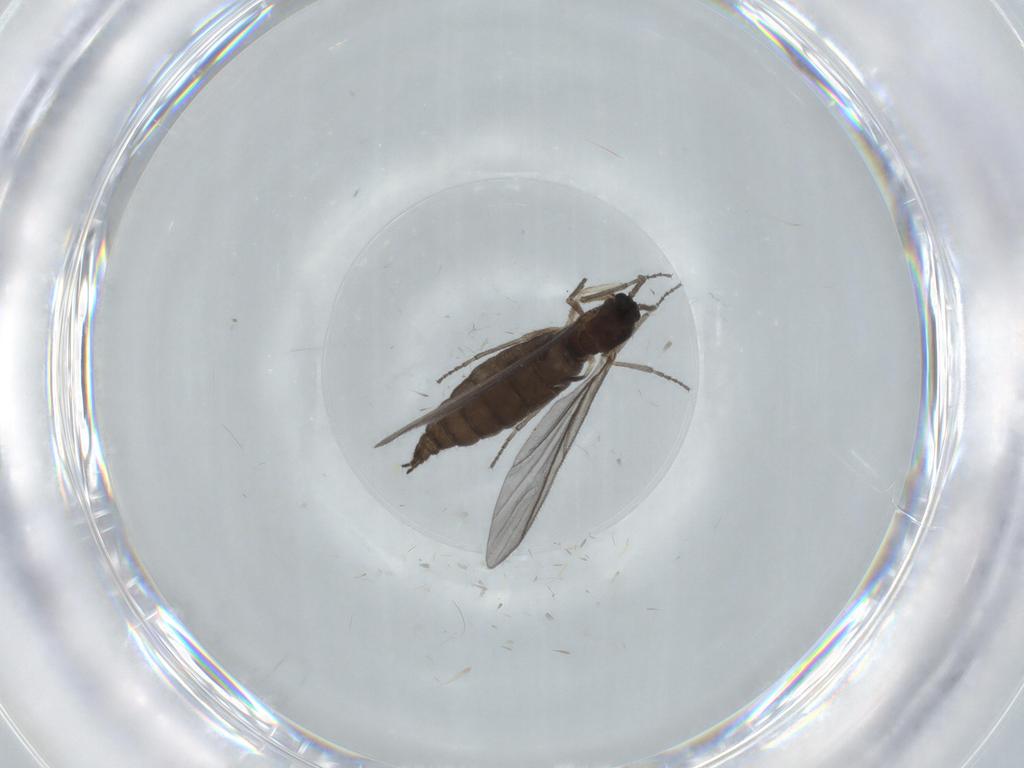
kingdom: Animalia
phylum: Arthropoda
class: Insecta
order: Diptera
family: Sciaridae
